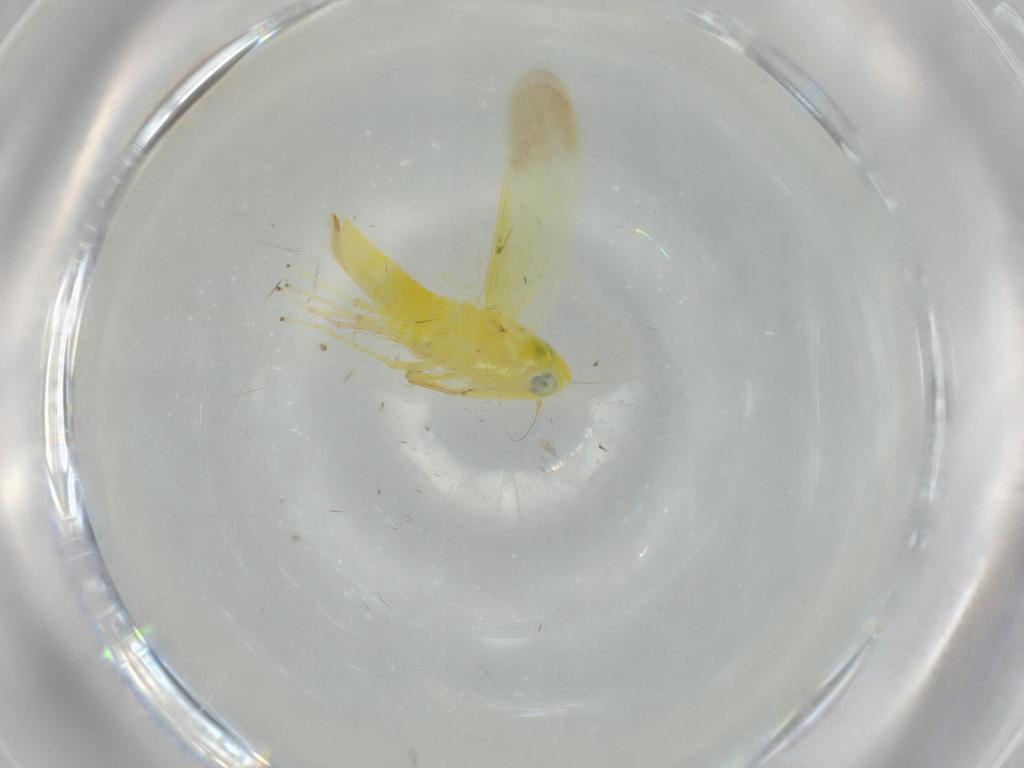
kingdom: Animalia
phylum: Arthropoda
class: Insecta
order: Hemiptera
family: Cicadellidae
